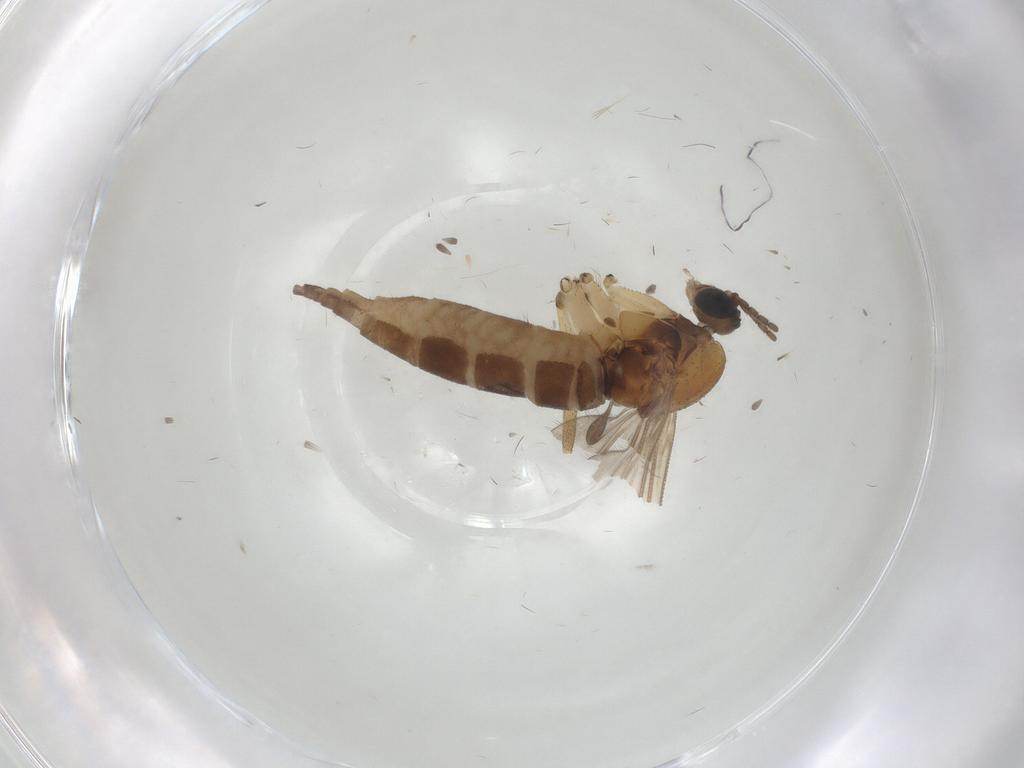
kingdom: Animalia
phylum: Arthropoda
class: Insecta
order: Diptera
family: Sciaridae
